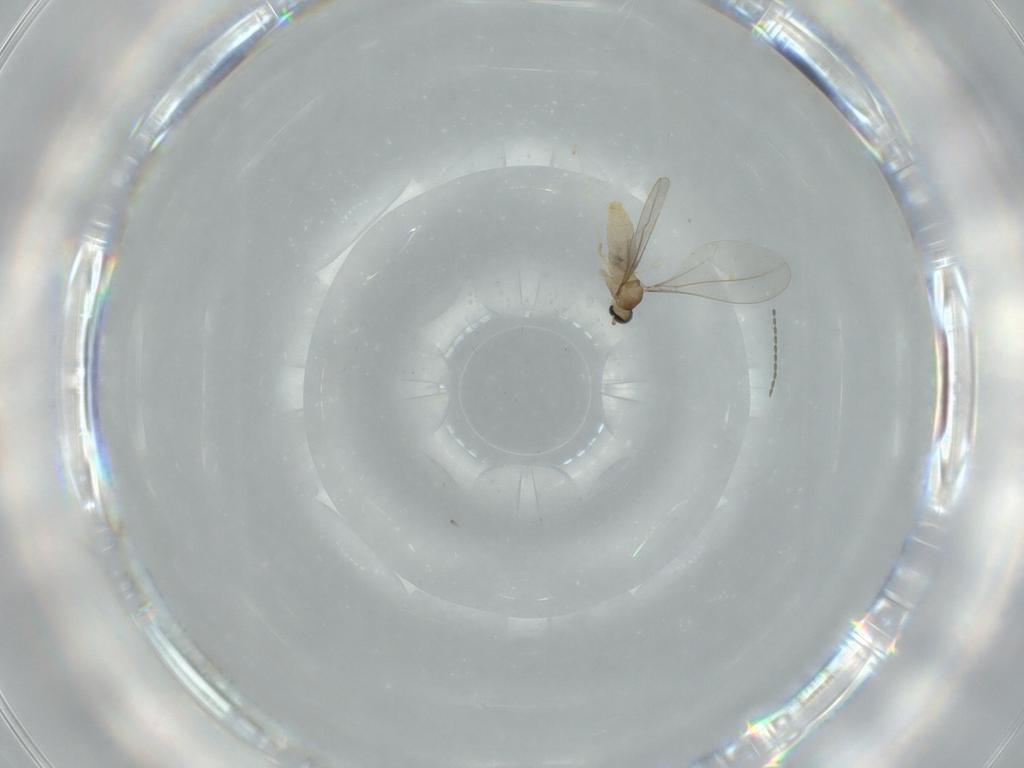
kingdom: Animalia
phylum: Arthropoda
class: Insecta
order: Diptera
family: Cecidomyiidae
